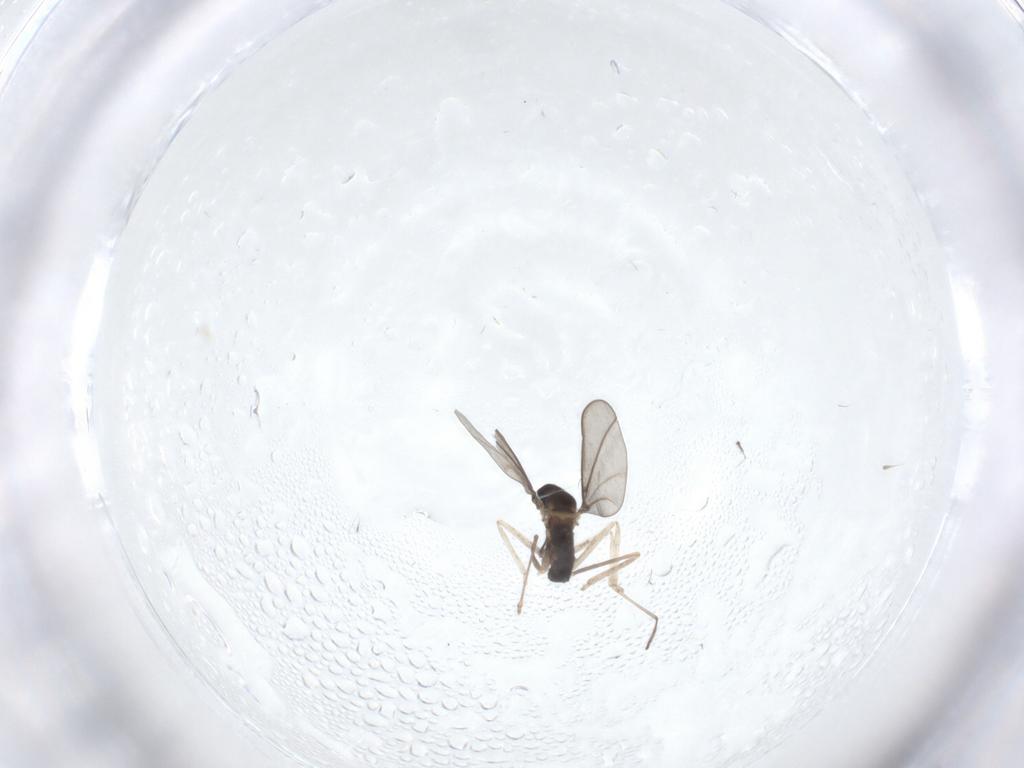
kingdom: Animalia
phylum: Arthropoda
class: Insecta
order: Diptera
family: Cecidomyiidae
